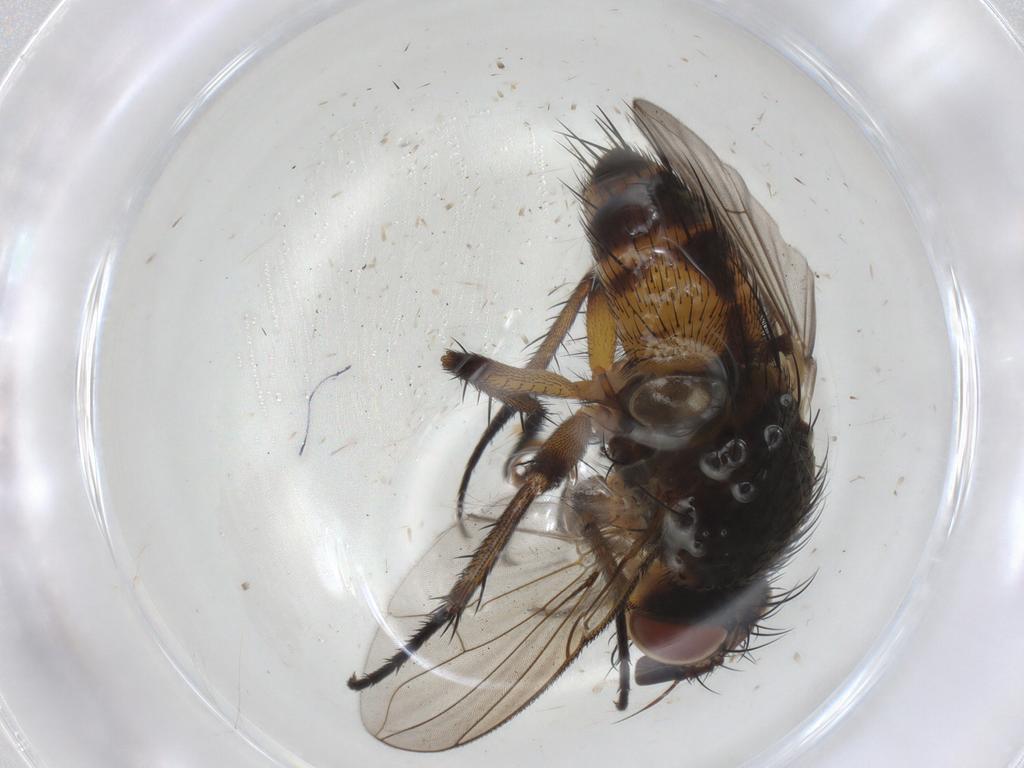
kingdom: Animalia
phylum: Arthropoda
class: Insecta
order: Diptera
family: Tachinidae
